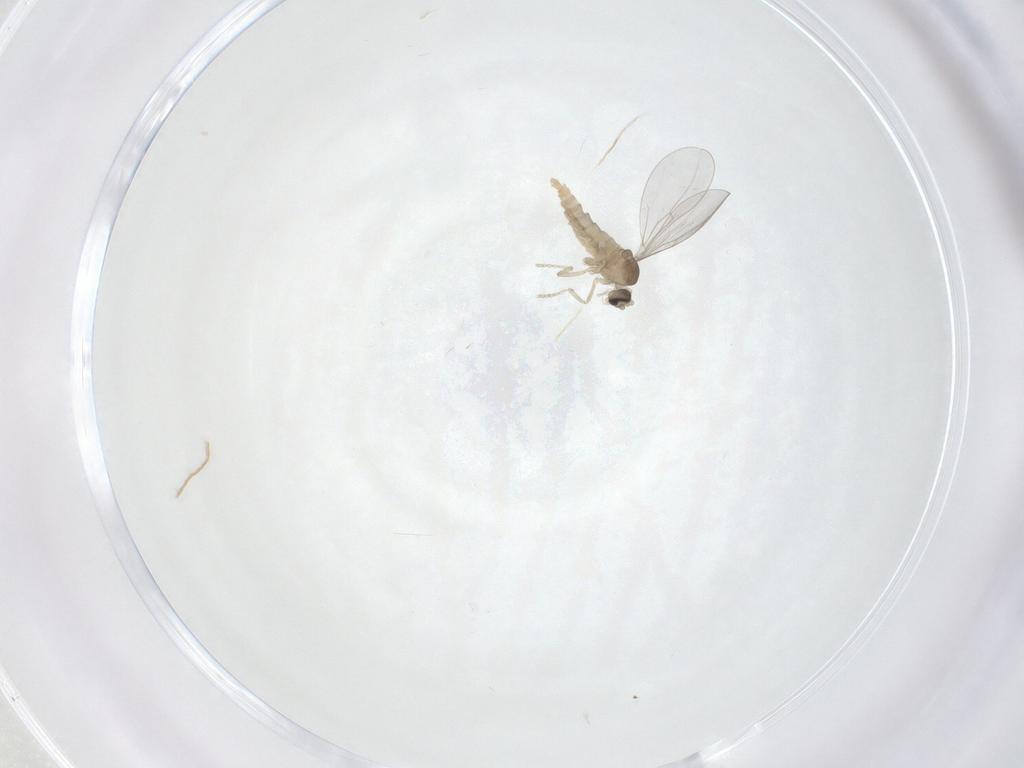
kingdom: Animalia
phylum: Arthropoda
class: Insecta
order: Diptera
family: Cecidomyiidae
